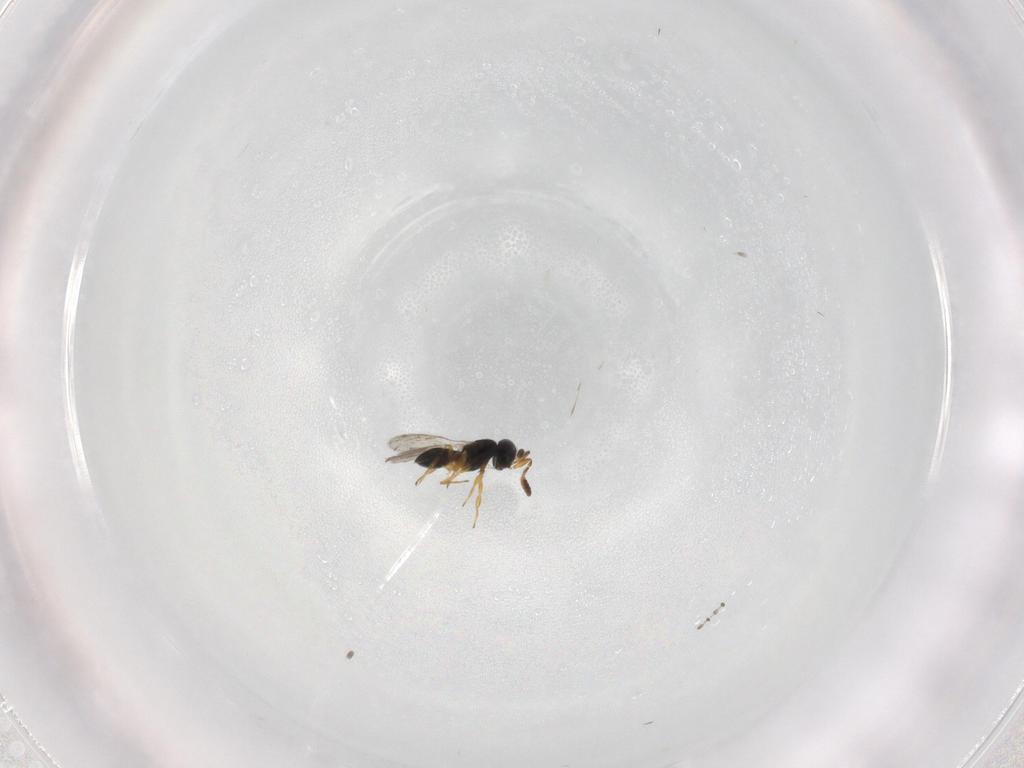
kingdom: Animalia
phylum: Arthropoda
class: Insecta
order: Hymenoptera
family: Scelionidae
